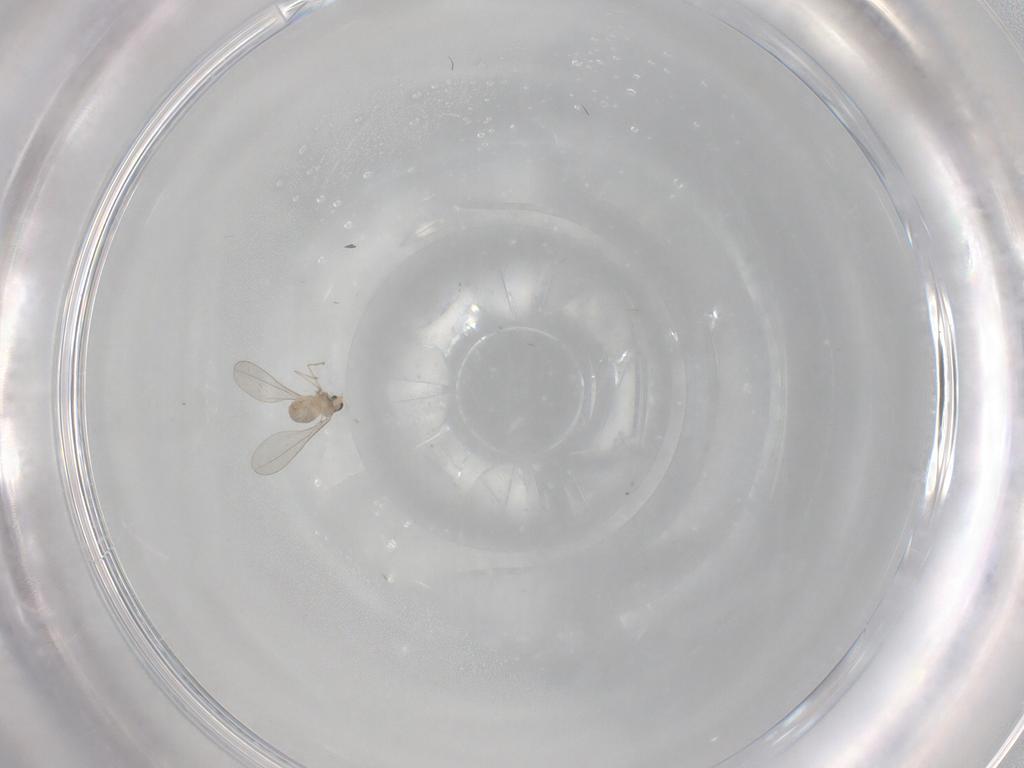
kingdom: Animalia
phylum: Arthropoda
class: Insecta
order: Diptera
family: Cecidomyiidae
